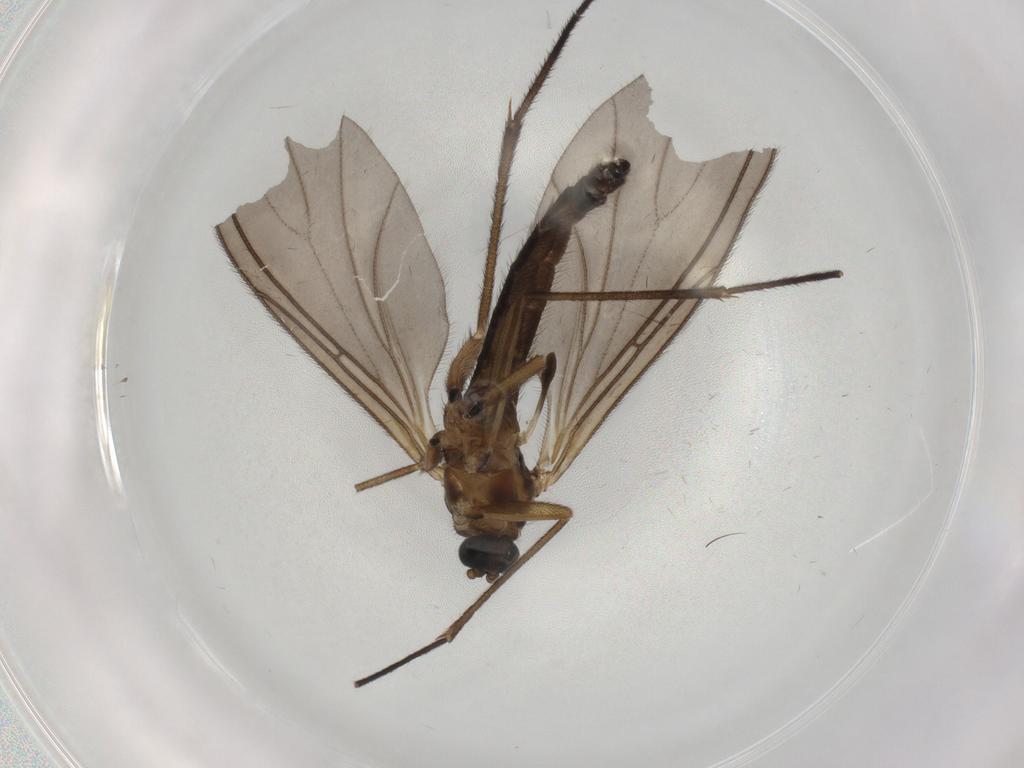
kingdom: Animalia
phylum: Arthropoda
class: Insecta
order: Diptera
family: Sciaridae
